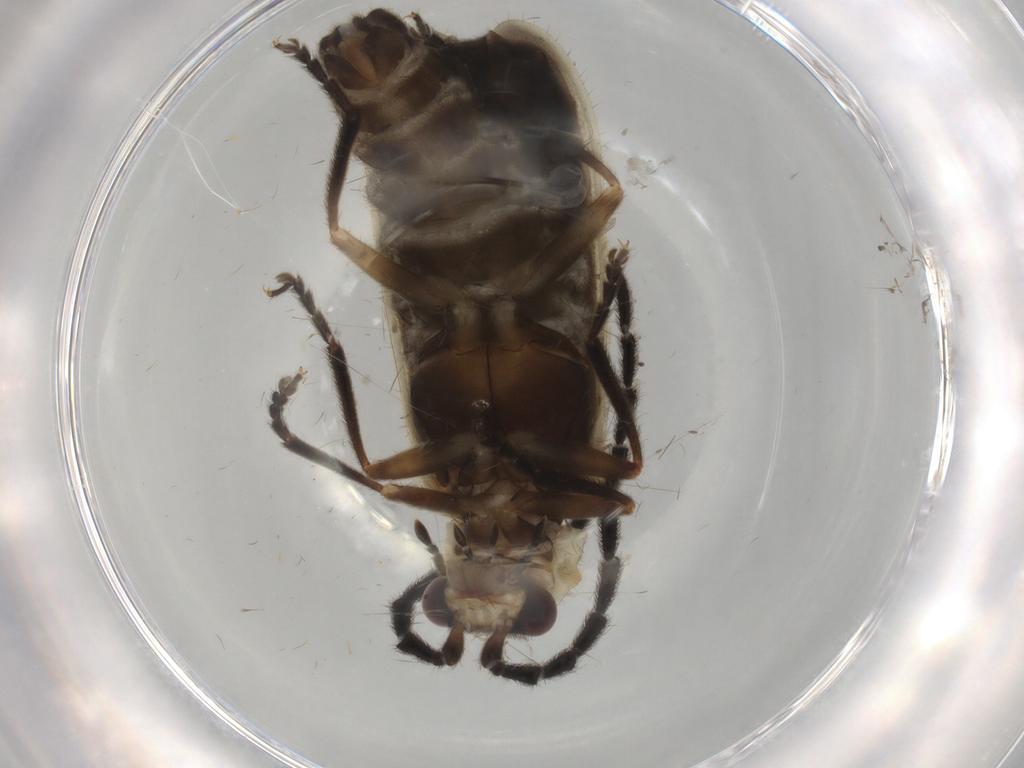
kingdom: Animalia
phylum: Arthropoda
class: Insecta
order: Coleoptera
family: Cantharidae
